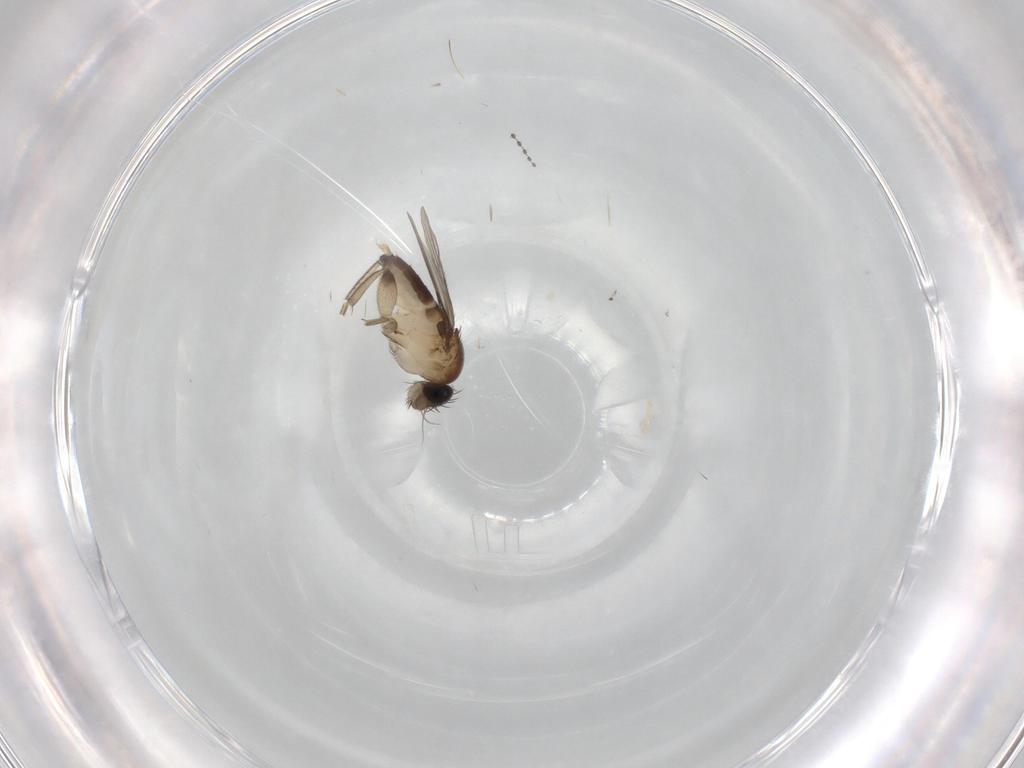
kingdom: Animalia
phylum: Arthropoda
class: Insecta
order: Diptera
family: Phoridae
